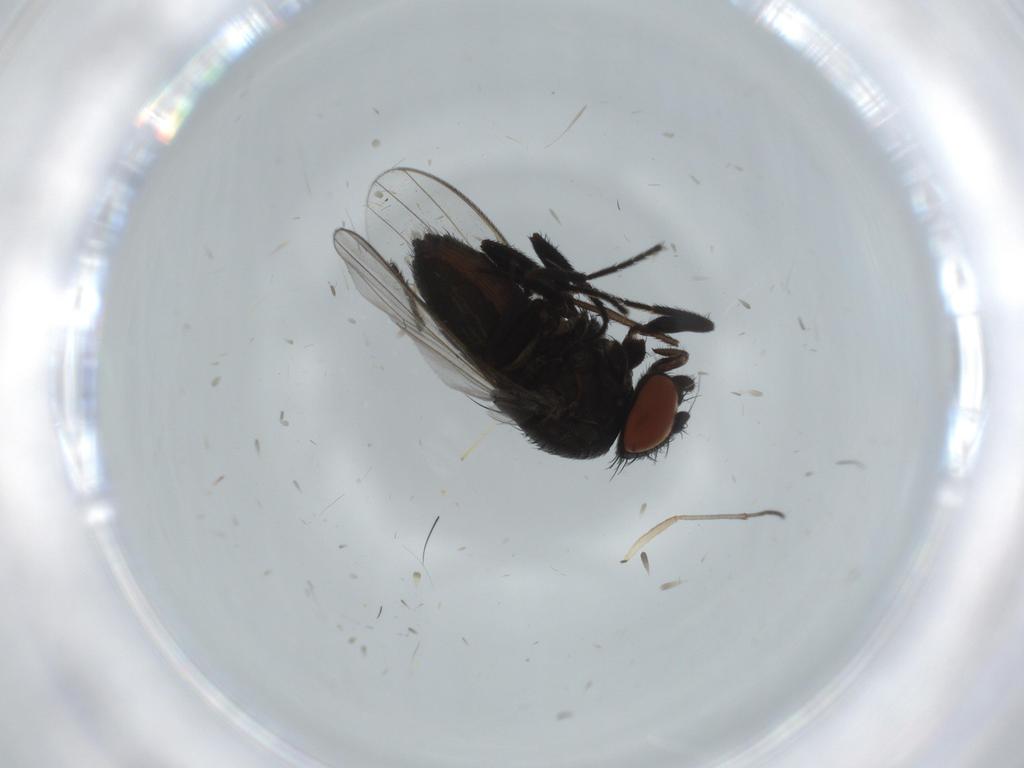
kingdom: Animalia
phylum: Arthropoda
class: Insecta
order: Diptera
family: Milichiidae
